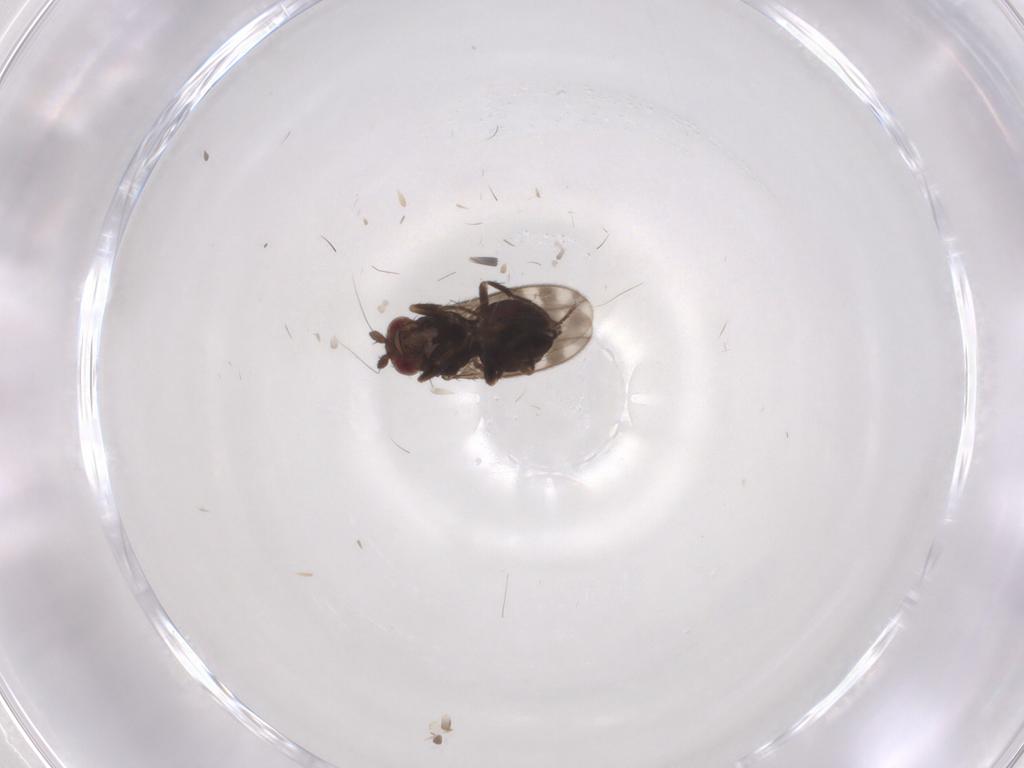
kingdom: Animalia
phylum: Arthropoda
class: Insecta
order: Diptera
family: Sphaeroceridae
